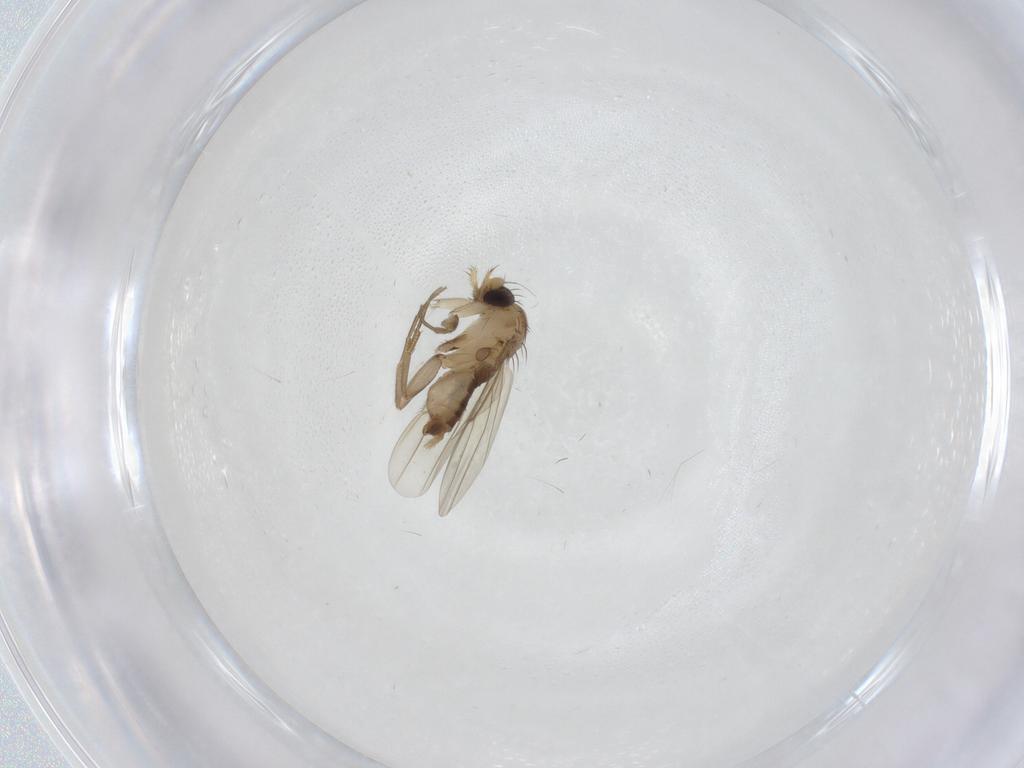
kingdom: Animalia
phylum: Arthropoda
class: Insecta
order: Diptera
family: Cecidomyiidae
